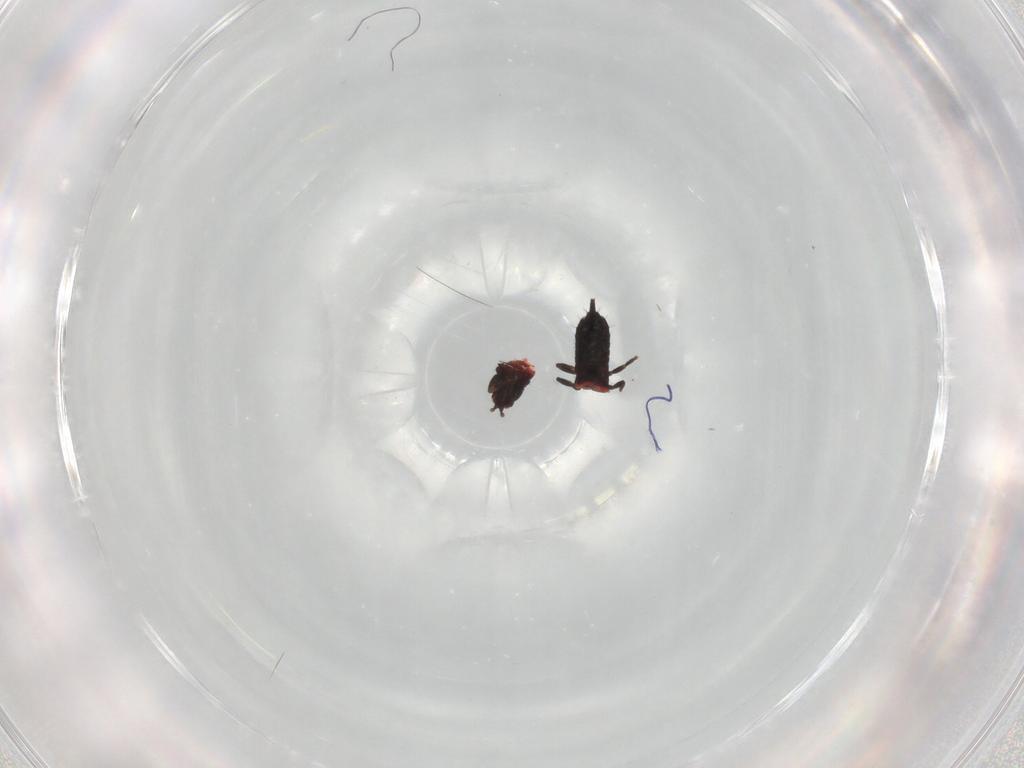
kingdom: Animalia
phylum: Arthropoda
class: Insecta
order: Thysanoptera
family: Phlaeothripidae
